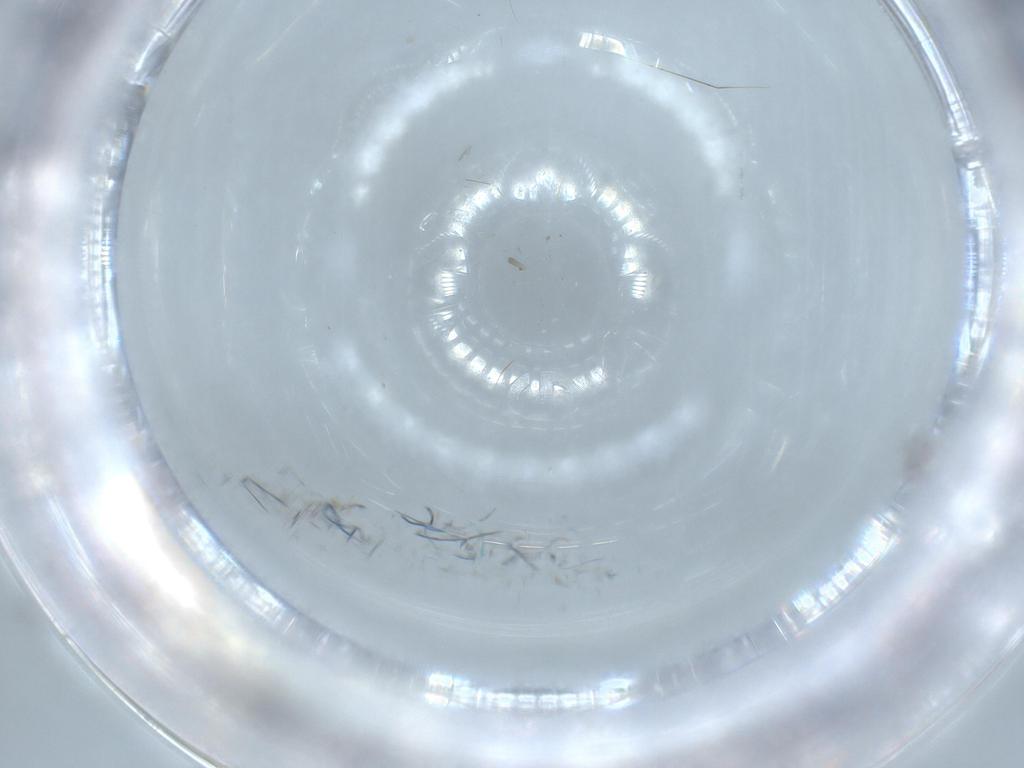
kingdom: Animalia
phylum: Arthropoda
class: Insecta
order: Diptera
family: Cecidomyiidae
